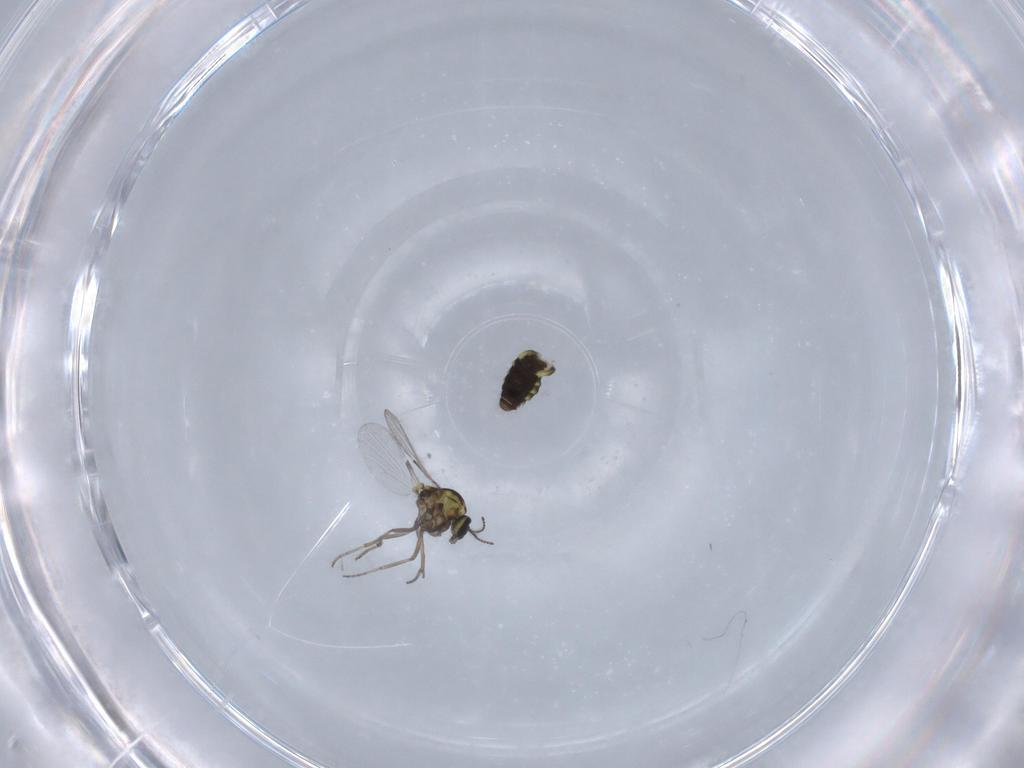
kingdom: Animalia
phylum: Arthropoda
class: Insecta
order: Diptera
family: Ceratopogonidae
